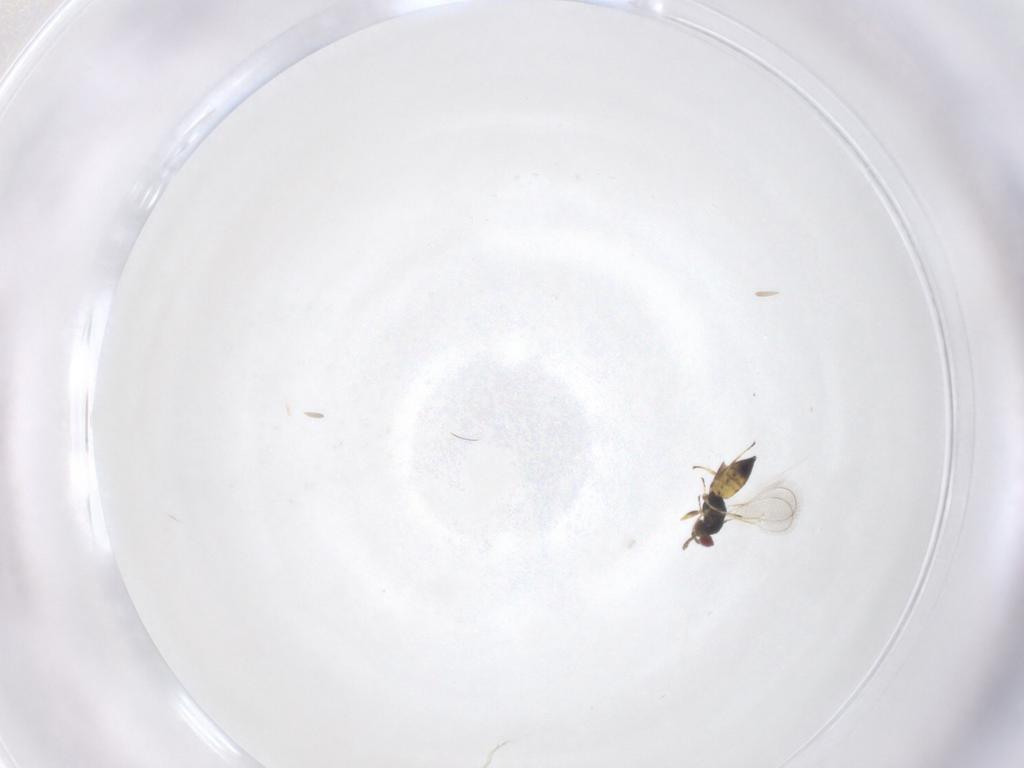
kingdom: Animalia
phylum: Arthropoda
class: Insecta
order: Hymenoptera
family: Eulophidae
